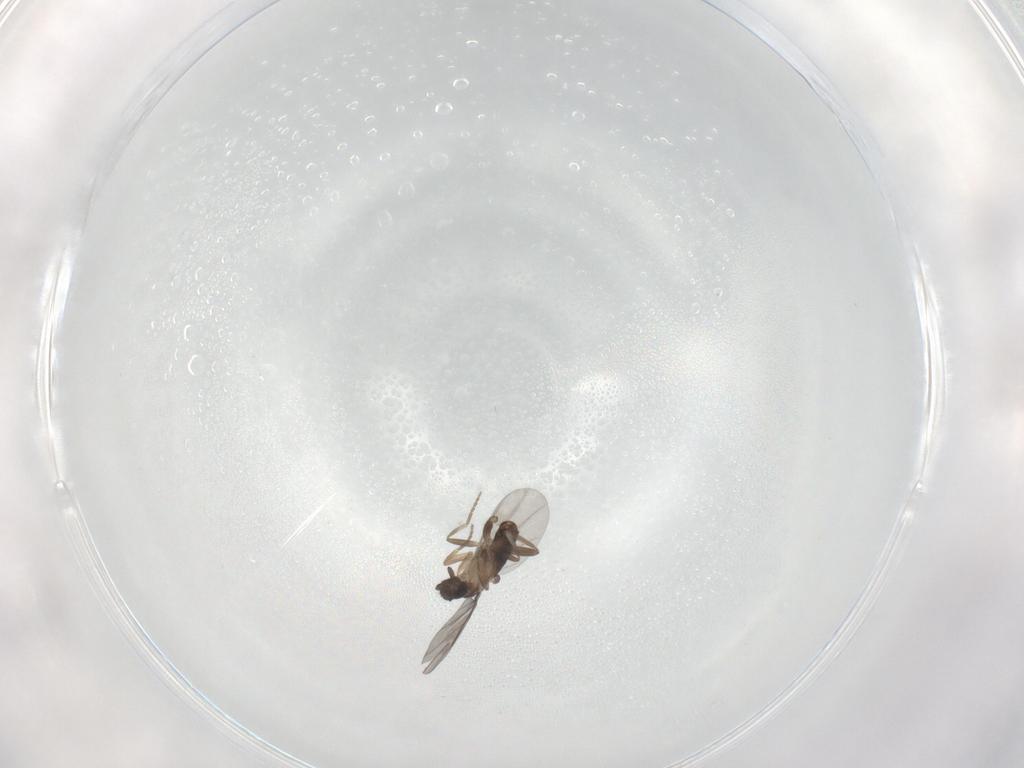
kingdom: Animalia
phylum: Arthropoda
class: Insecta
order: Diptera
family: Phoridae
